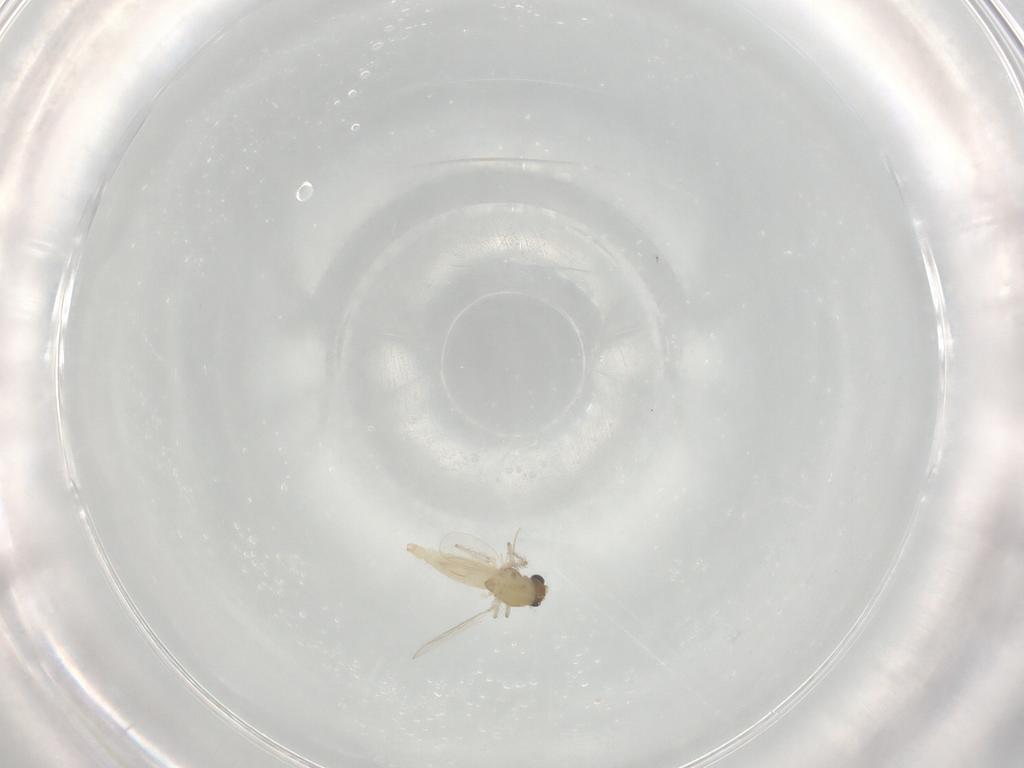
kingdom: Animalia
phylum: Arthropoda
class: Insecta
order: Diptera
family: Chironomidae
